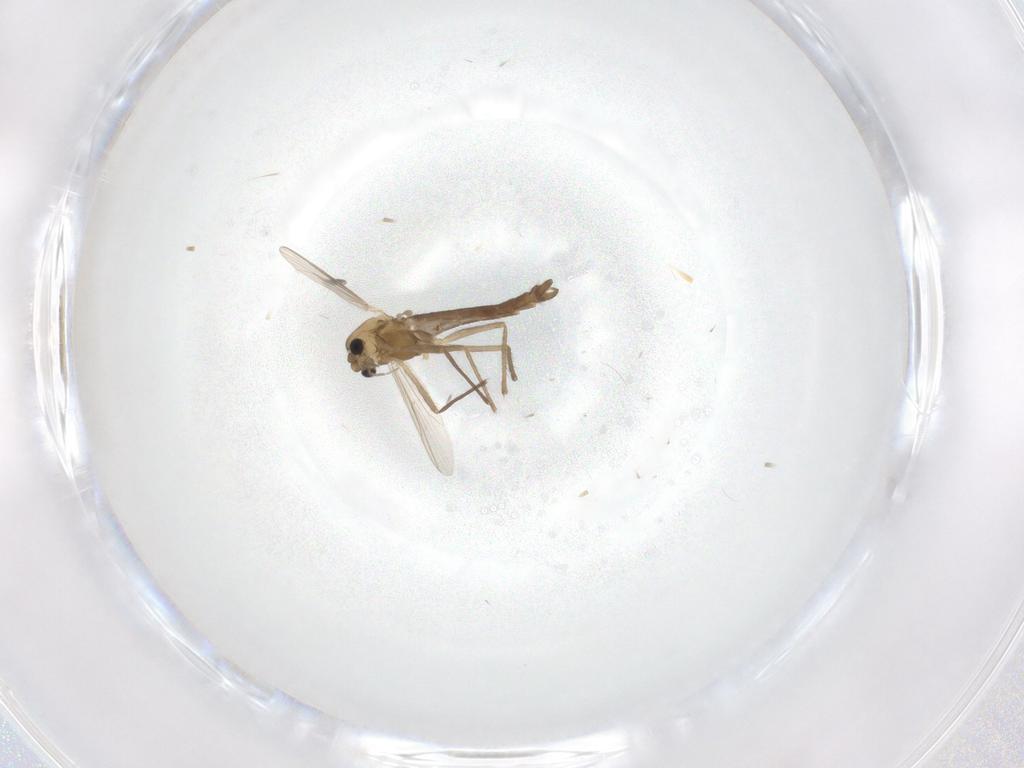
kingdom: Animalia
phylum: Arthropoda
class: Insecta
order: Diptera
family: Chironomidae
